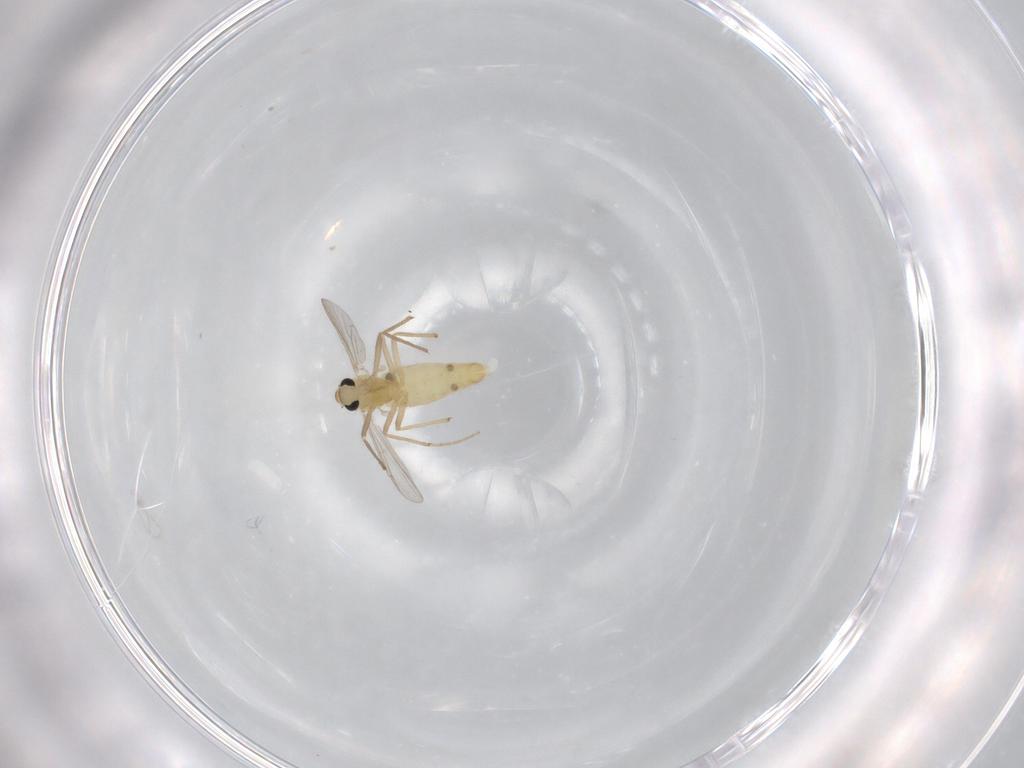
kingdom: Animalia
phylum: Arthropoda
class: Insecta
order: Diptera
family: Chironomidae
